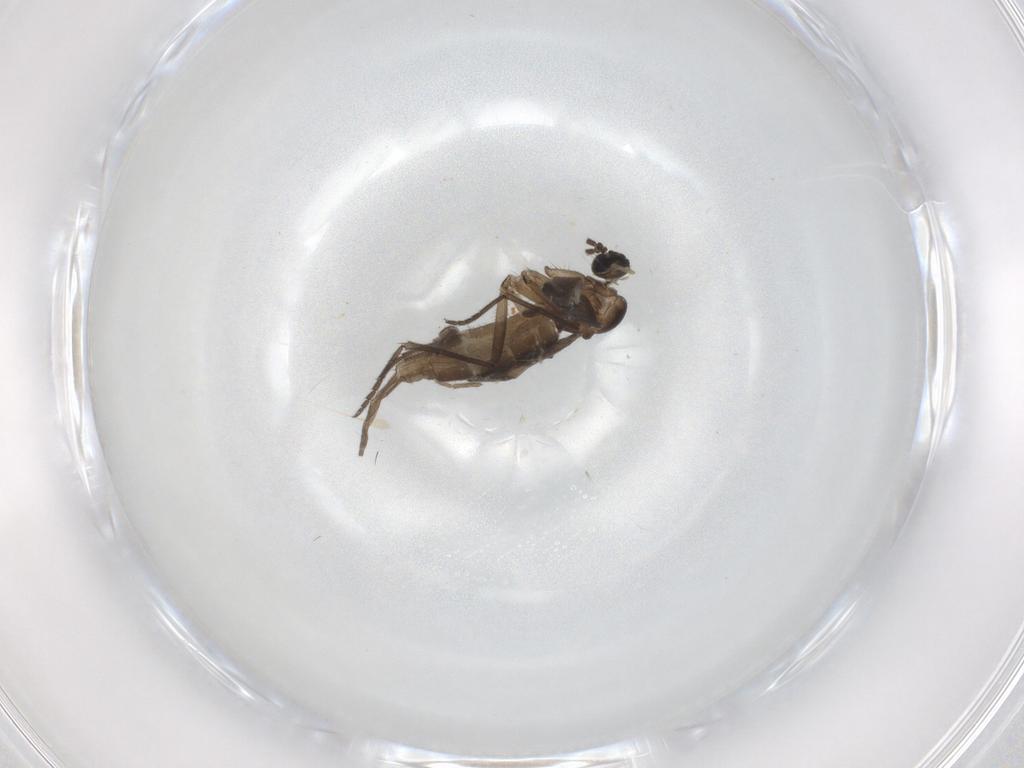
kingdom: Animalia
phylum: Arthropoda
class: Insecta
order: Diptera
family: Sciaridae
